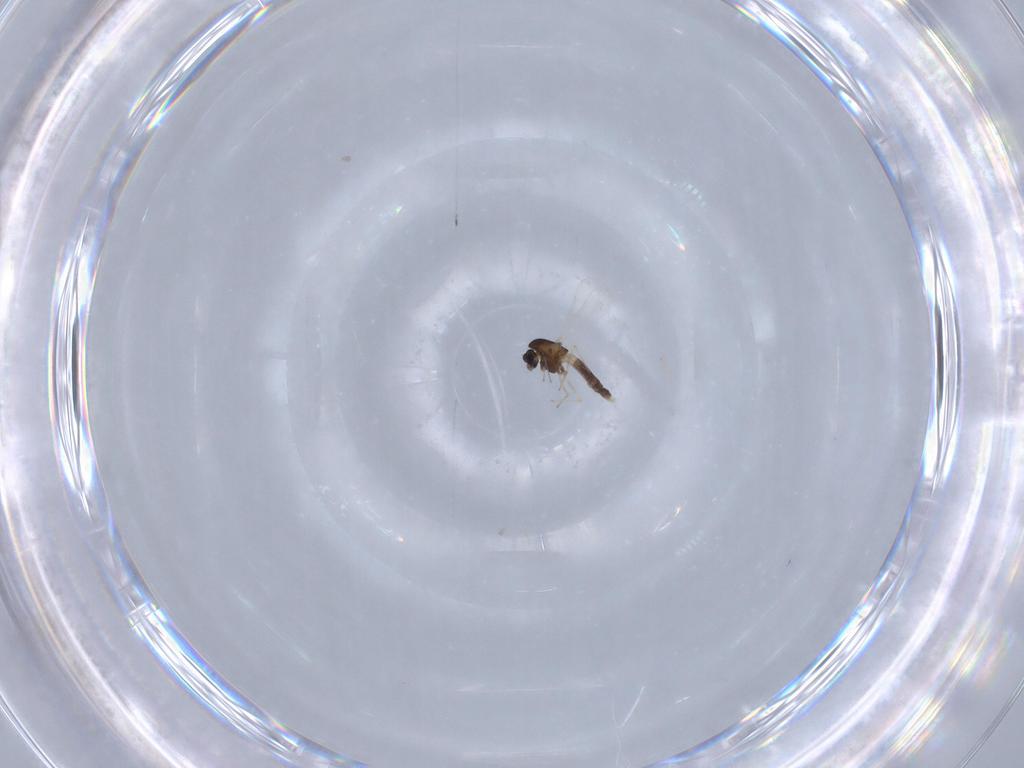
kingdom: Animalia
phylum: Arthropoda
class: Insecta
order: Diptera
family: Chironomidae
